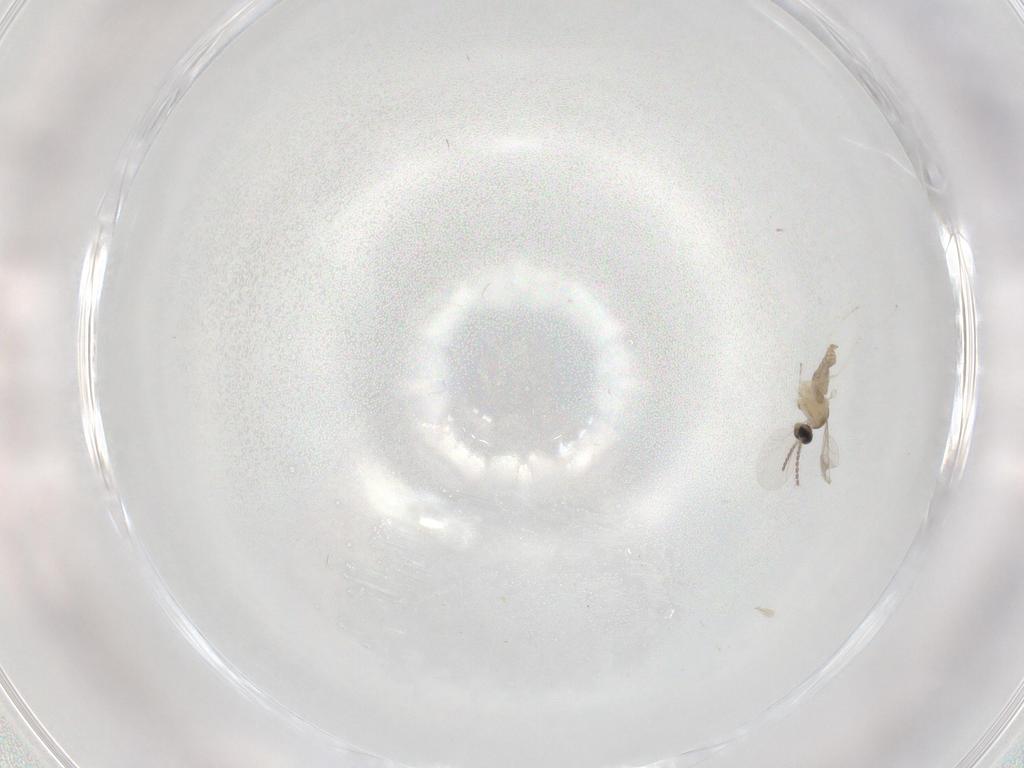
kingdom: Animalia
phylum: Arthropoda
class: Insecta
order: Diptera
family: Cecidomyiidae
